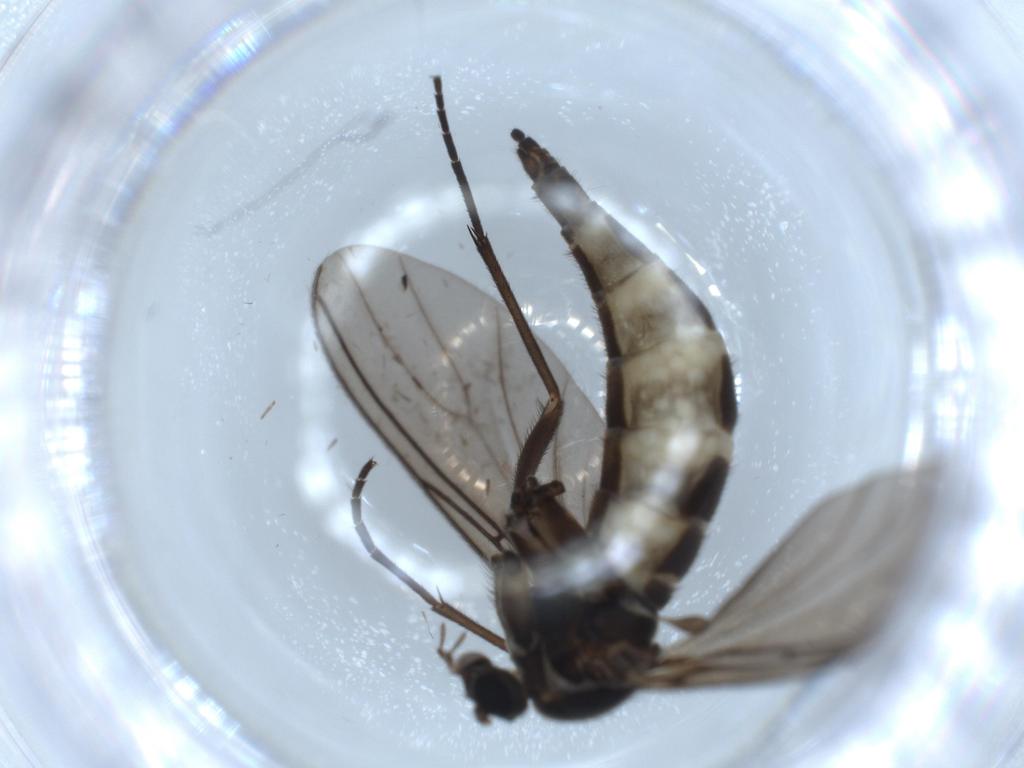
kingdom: Animalia
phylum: Arthropoda
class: Insecta
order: Diptera
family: Sciaridae
